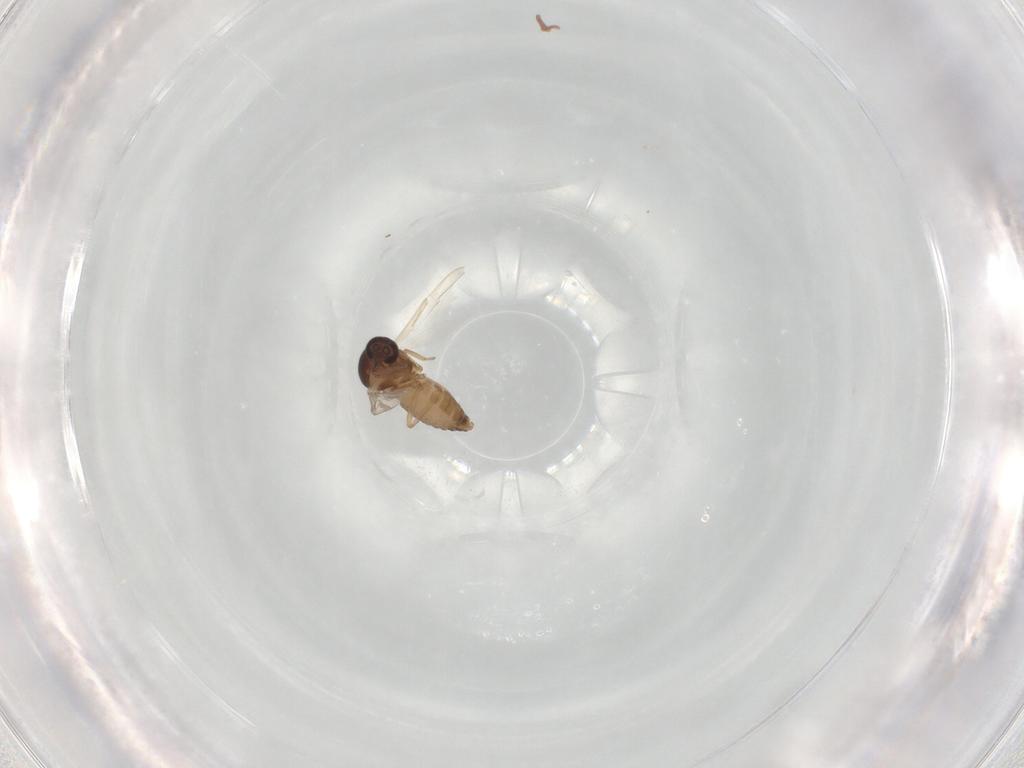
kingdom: Animalia
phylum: Arthropoda
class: Insecta
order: Diptera
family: Ceratopogonidae
